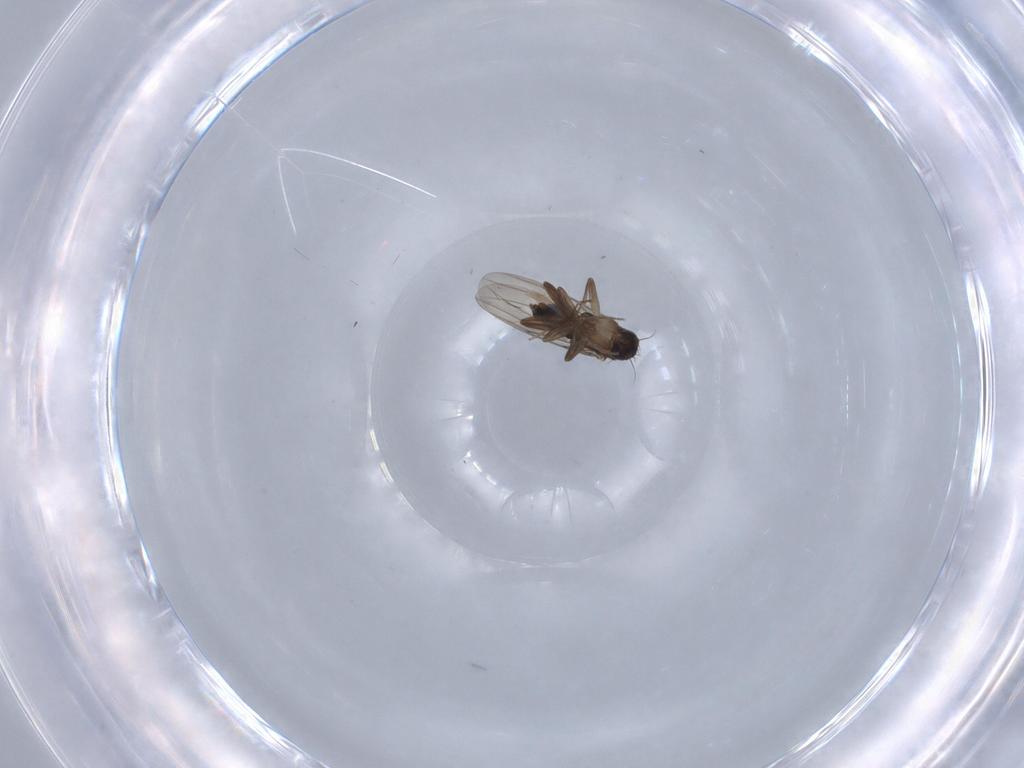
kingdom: Animalia
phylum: Arthropoda
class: Insecta
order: Diptera
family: Phoridae
